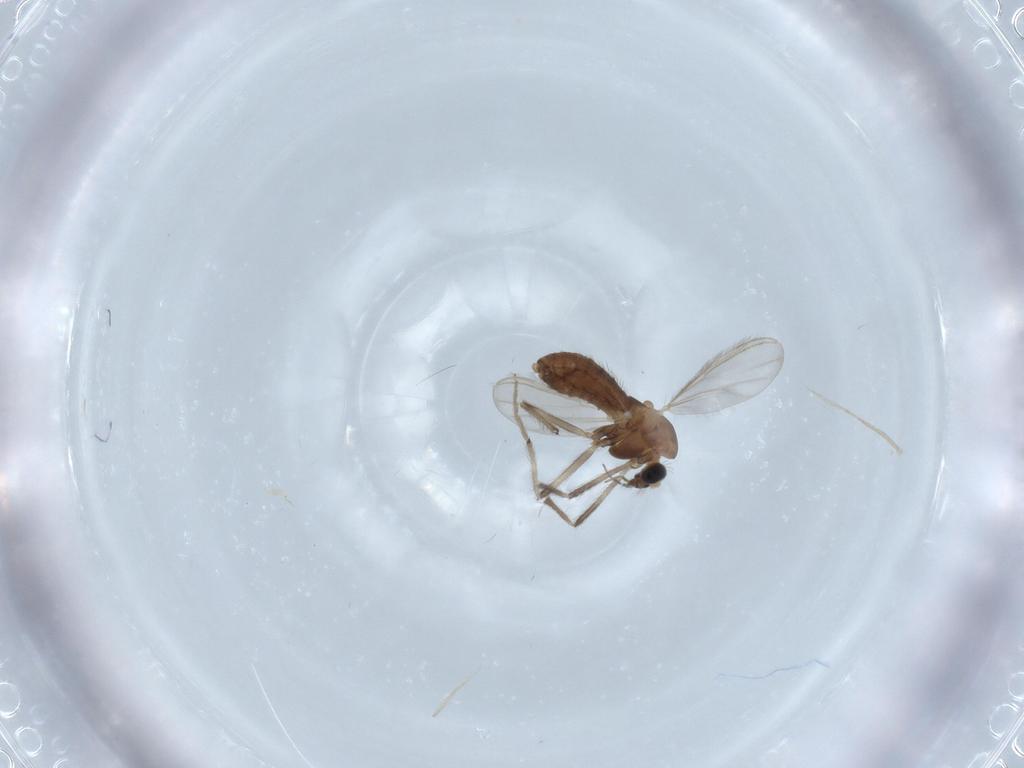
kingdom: Animalia
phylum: Arthropoda
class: Insecta
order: Diptera
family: Chironomidae
